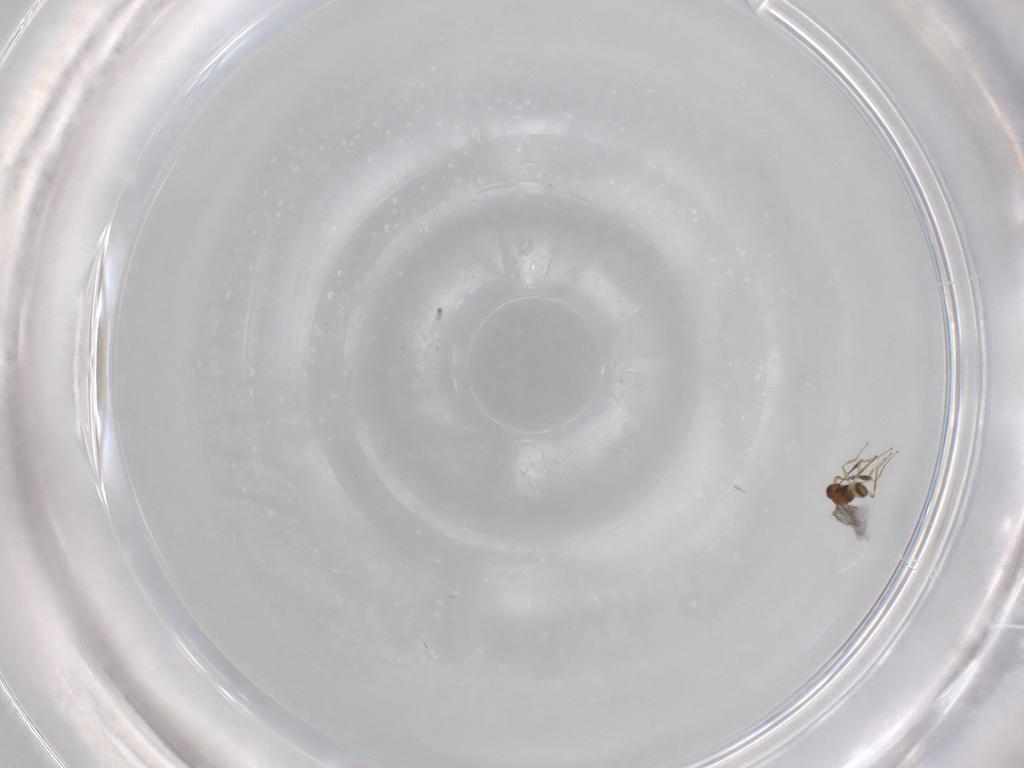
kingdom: Animalia
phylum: Arthropoda
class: Insecta
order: Hymenoptera
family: Mymaridae
